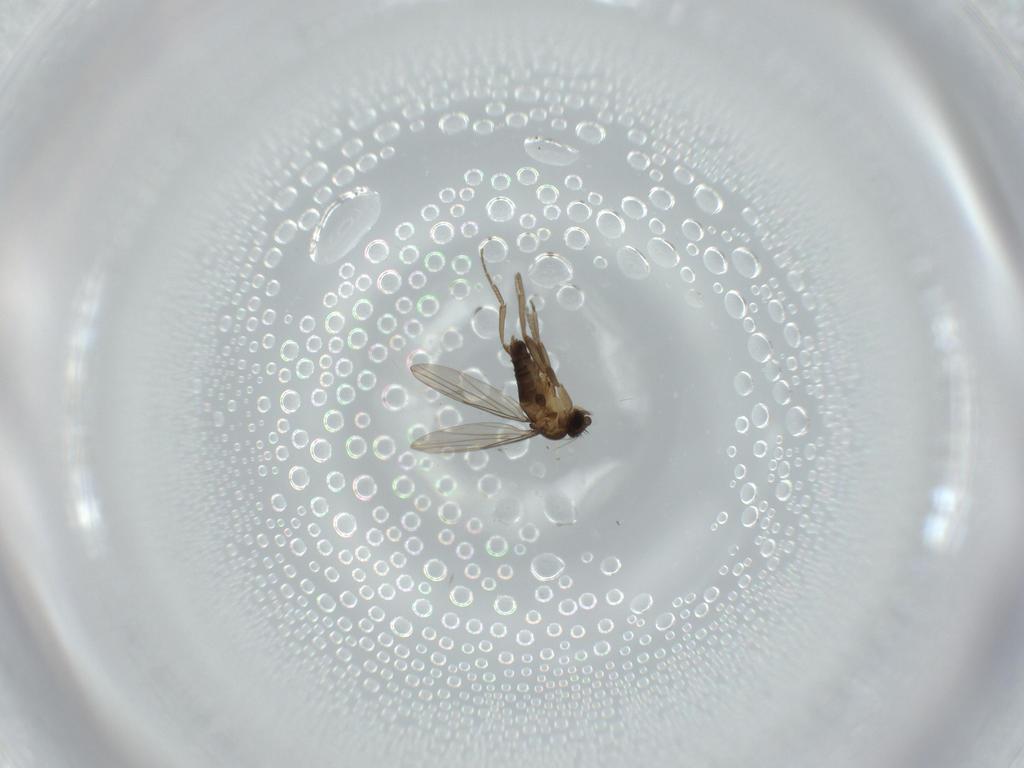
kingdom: Animalia
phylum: Arthropoda
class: Insecta
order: Diptera
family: Phoridae
